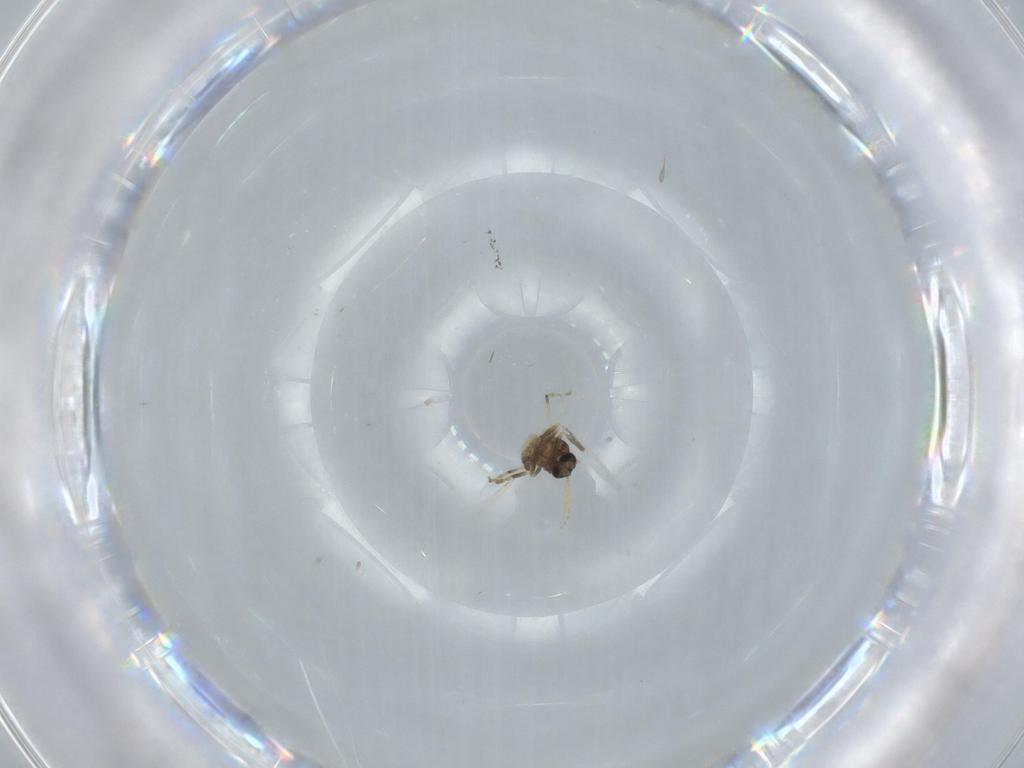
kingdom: Animalia
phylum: Arthropoda
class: Insecta
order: Diptera
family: Ceratopogonidae
